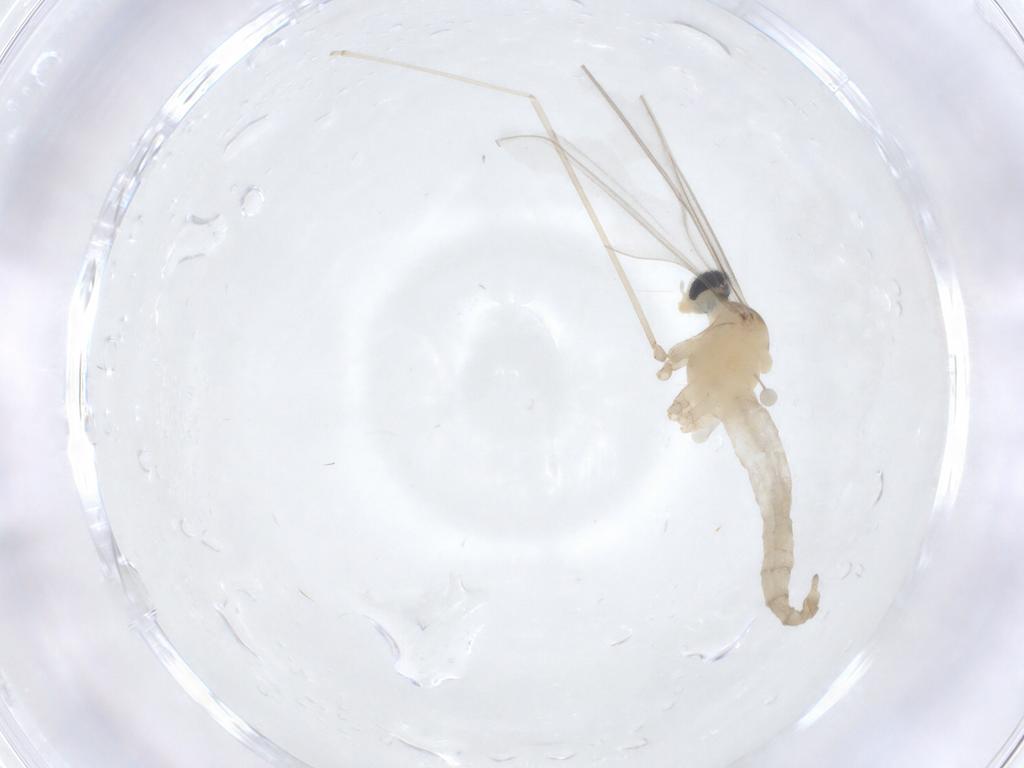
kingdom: Animalia
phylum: Arthropoda
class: Insecta
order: Diptera
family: Cecidomyiidae
